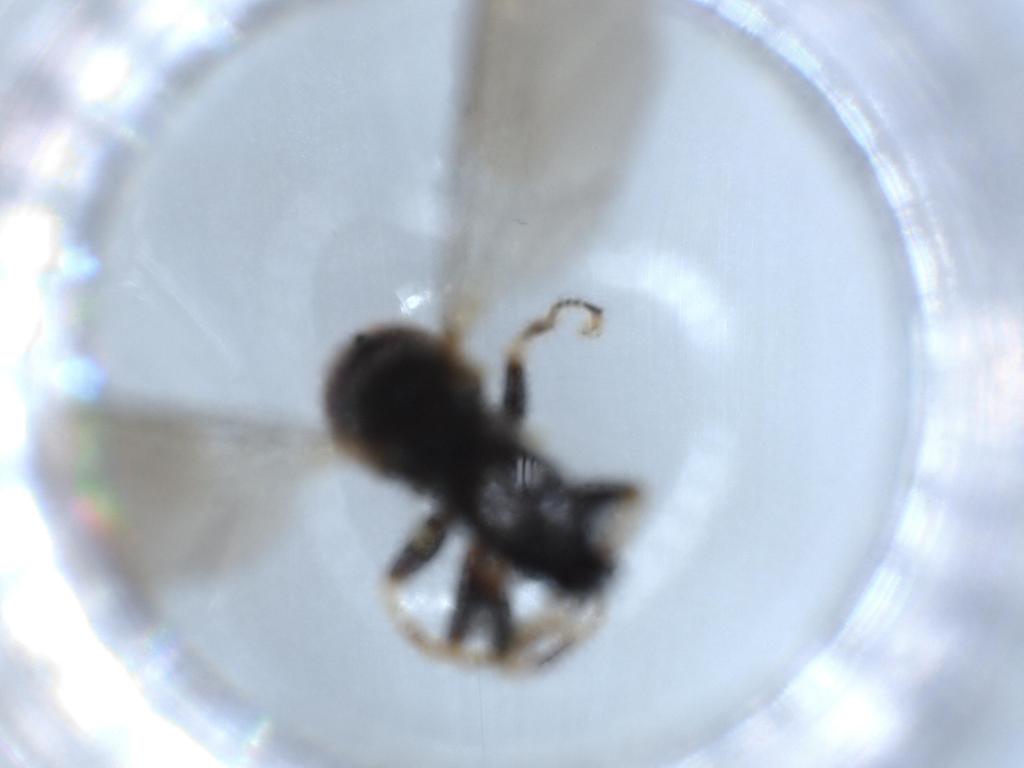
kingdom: Animalia
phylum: Arthropoda
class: Insecta
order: Diptera
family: Pipunculidae
